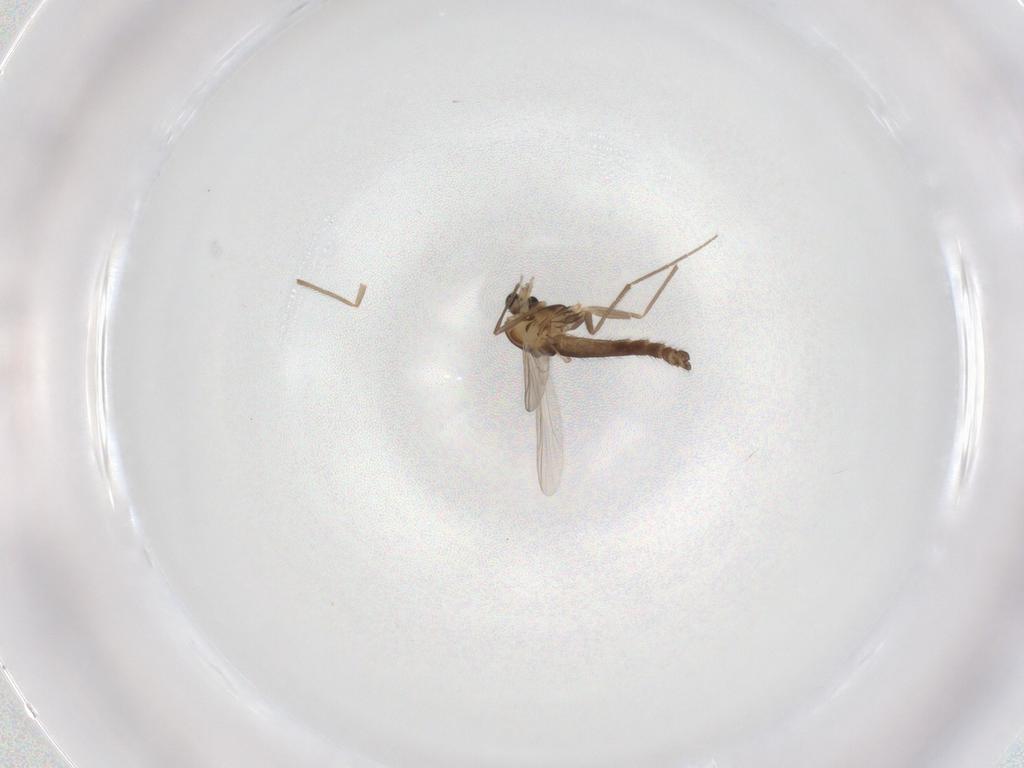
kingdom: Animalia
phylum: Arthropoda
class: Insecta
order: Diptera
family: Chironomidae
